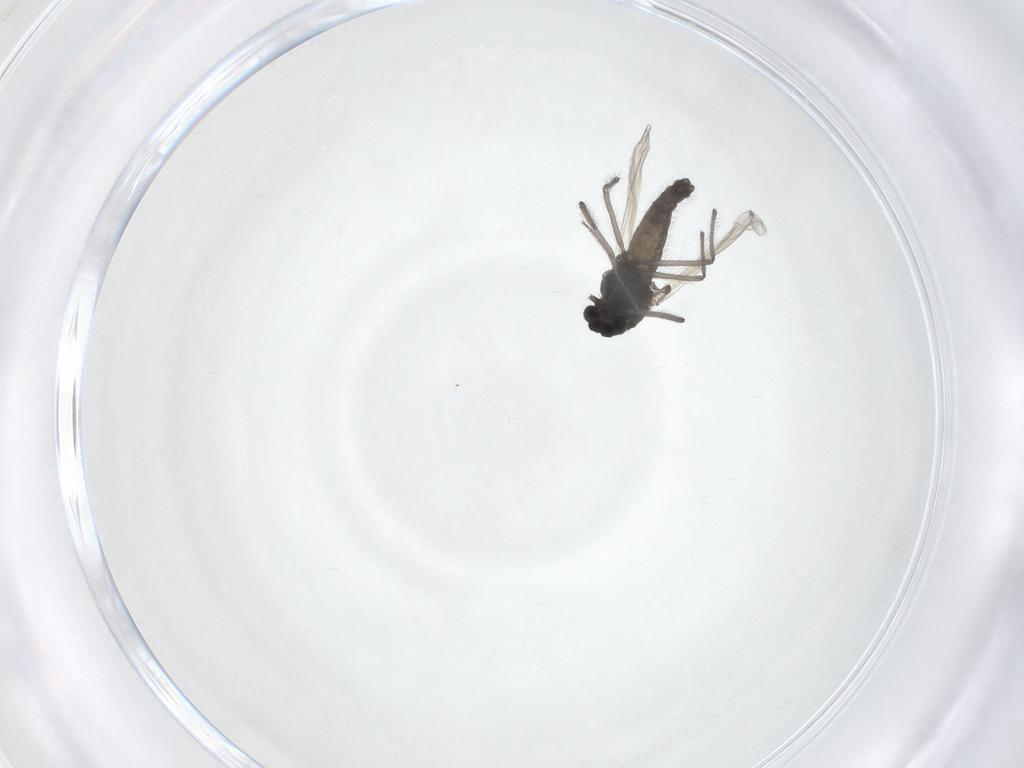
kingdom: Animalia
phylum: Arthropoda
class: Insecta
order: Diptera
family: Chironomidae
